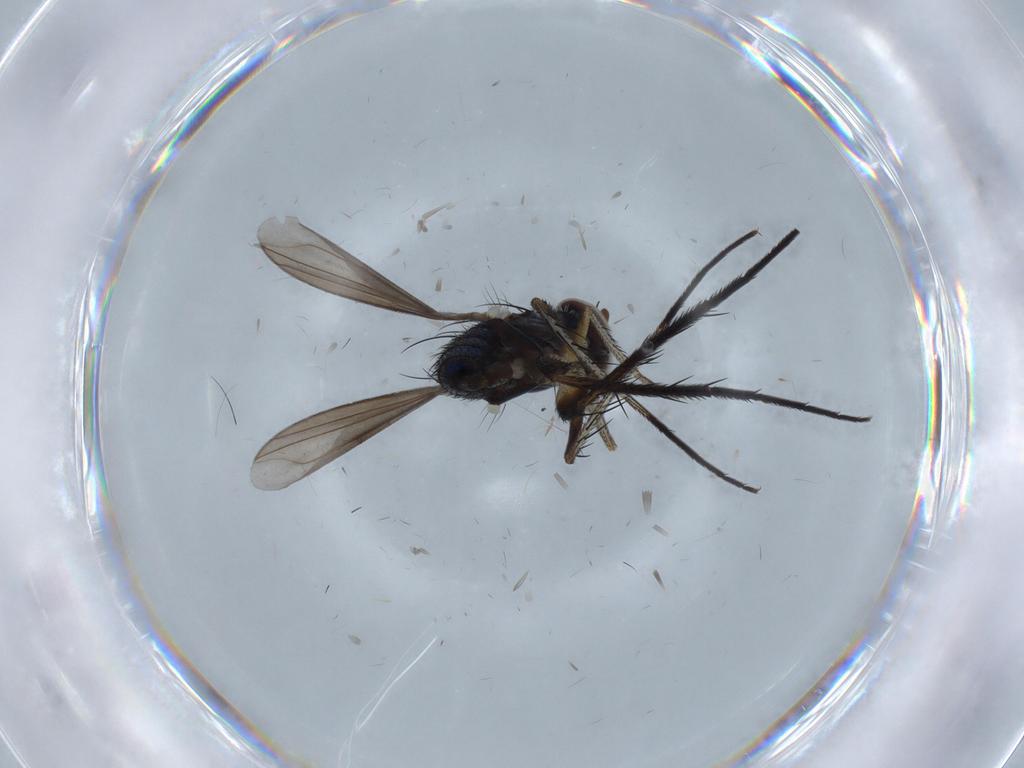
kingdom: Animalia
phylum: Arthropoda
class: Insecta
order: Diptera
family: Dolichopodidae
